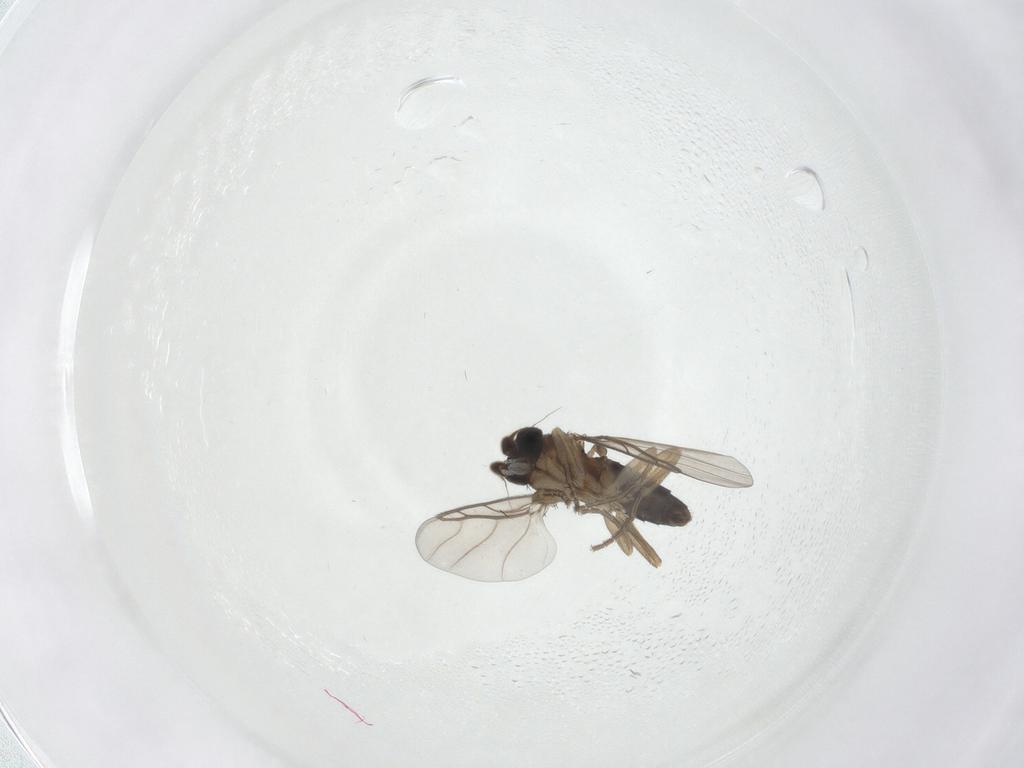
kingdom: Animalia
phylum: Arthropoda
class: Insecta
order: Diptera
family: Phoridae
